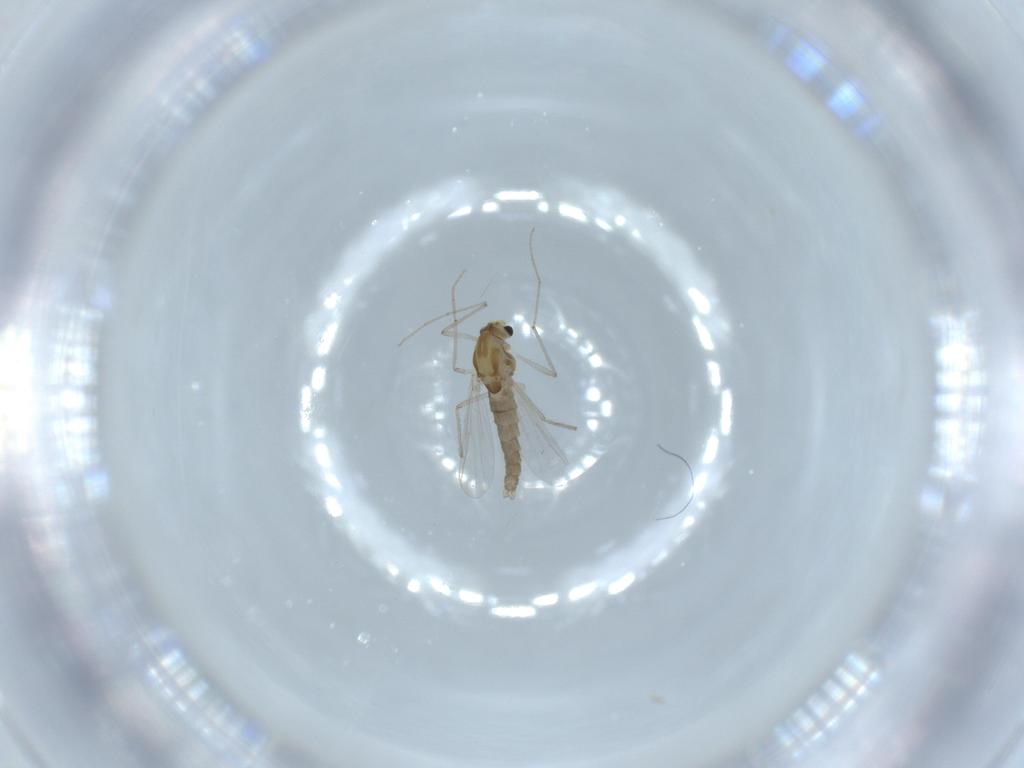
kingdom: Animalia
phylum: Arthropoda
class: Insecta
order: Diptera
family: Chironomidae
